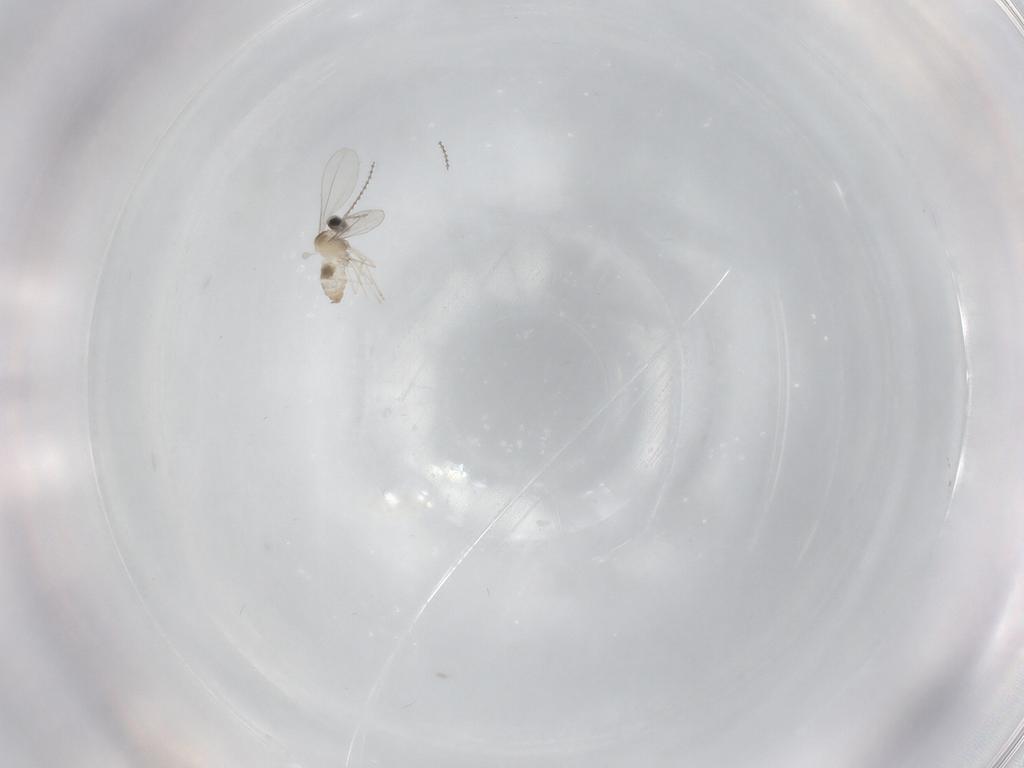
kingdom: Animalia
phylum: Arthropoda
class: Insecta
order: Diptera
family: Cecidomyiidae
